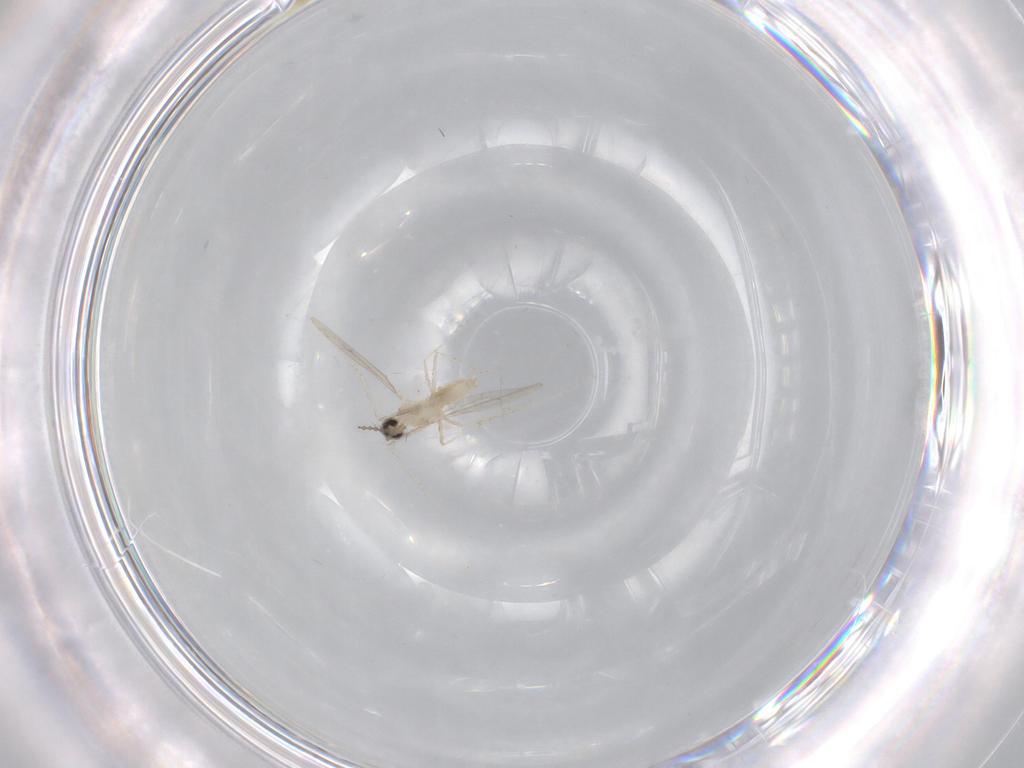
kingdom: Animalia
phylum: Arthropoda
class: Insecta
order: Diptera
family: Chironomidae
